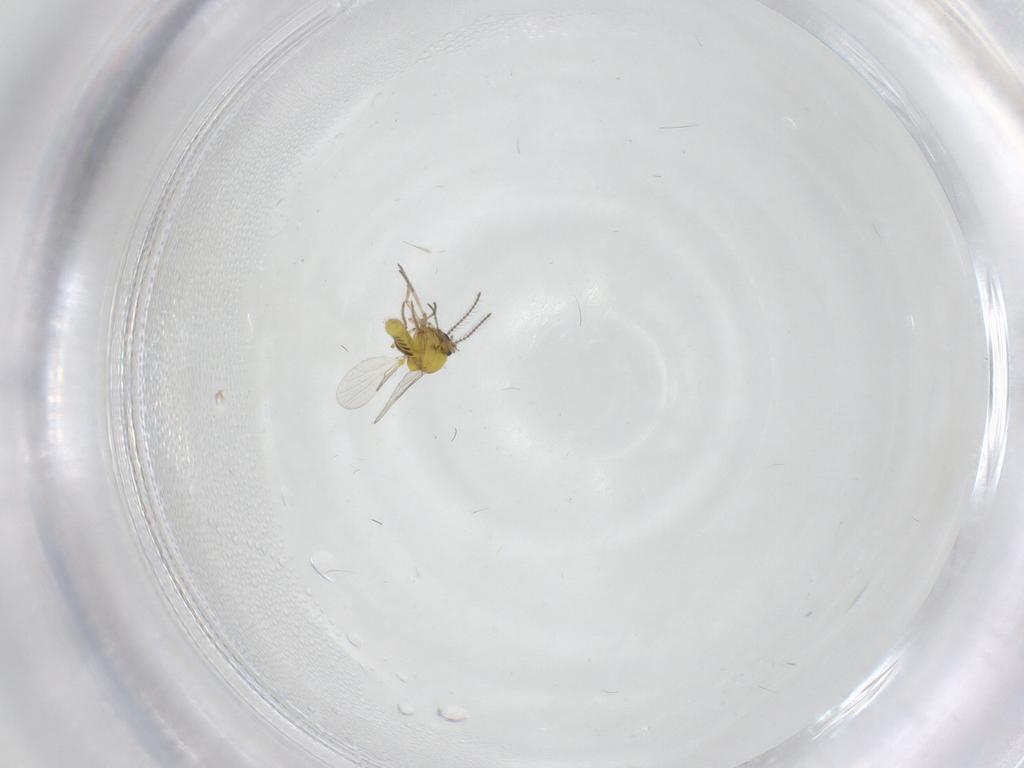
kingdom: Animalia
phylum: Arthropoda
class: Insecta
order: Diptera
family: Ceratopogonidae
